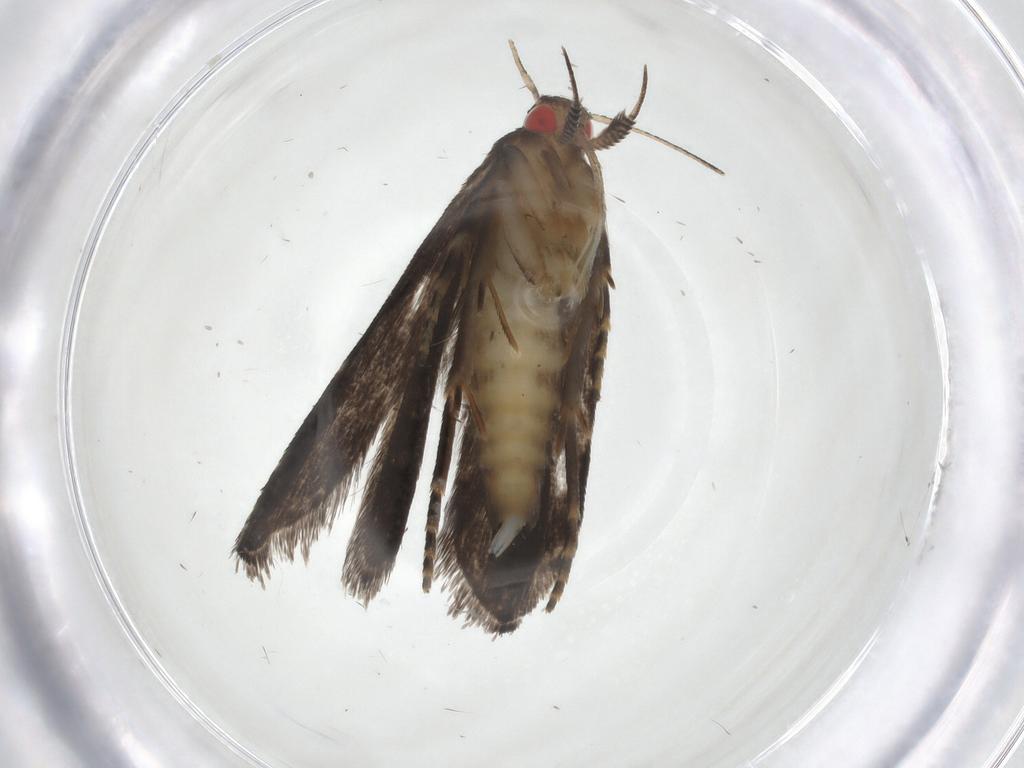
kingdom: Animalia
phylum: Arthropoda
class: Insecta
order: Lepidoptera
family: Gelechiidae
